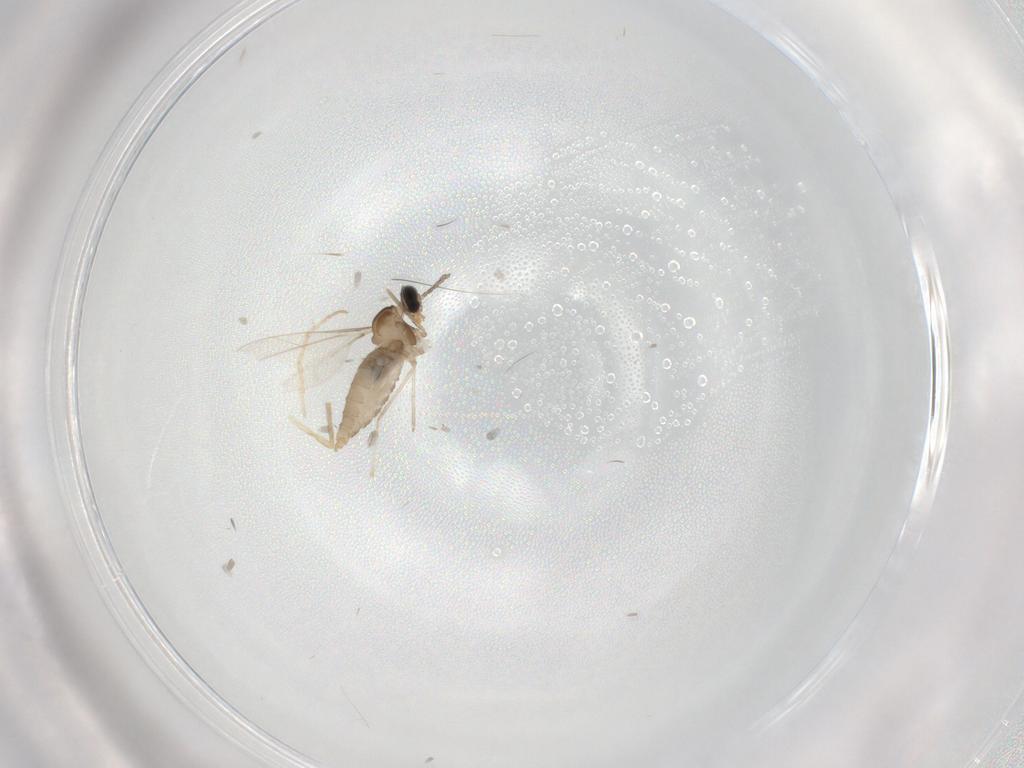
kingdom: Animalia
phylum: Arthropoda
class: Insecta
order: Diptera
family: Chironomidae
